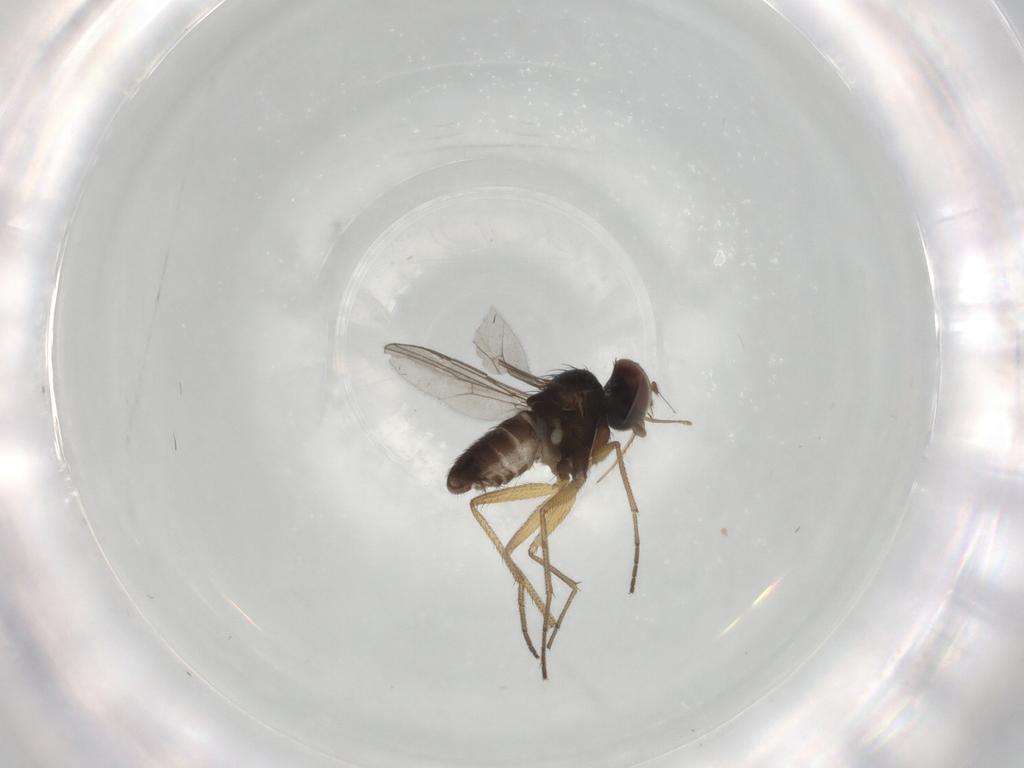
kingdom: Animalia
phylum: Arthropoda
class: Insecta
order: Diptera
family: Dolichopodidae
